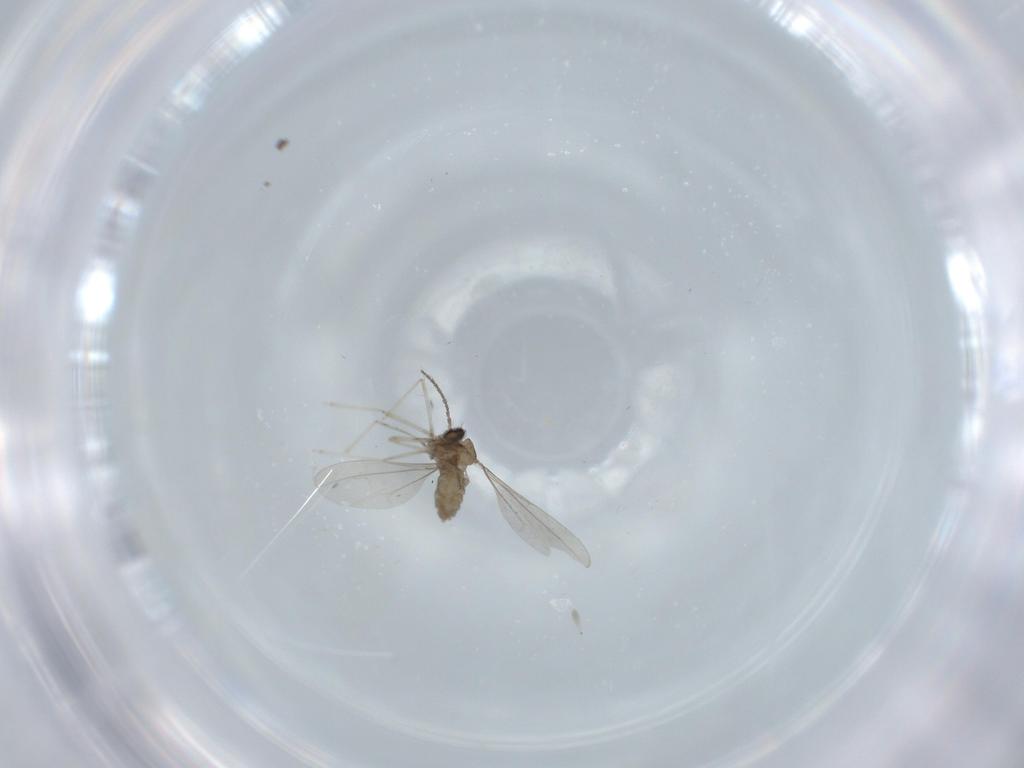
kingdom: Animalia
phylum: Arthropoda
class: Insecta
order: Diptera
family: Cecidomyiidae
